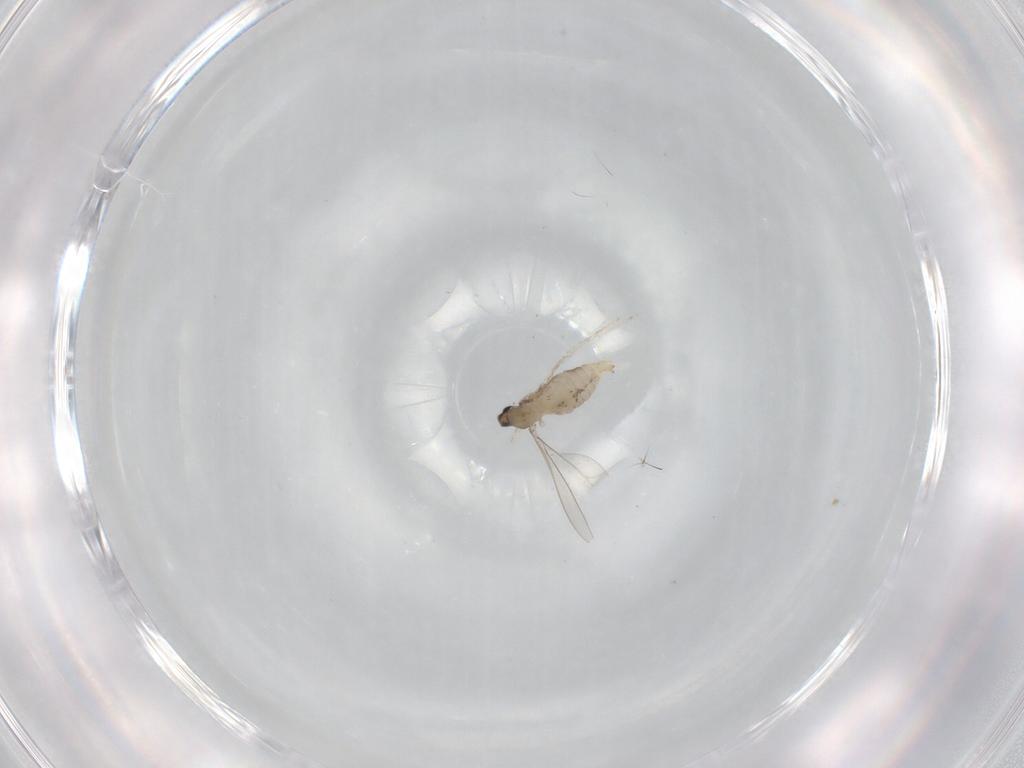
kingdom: Animalia
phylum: Arthropoda
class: Insecta
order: Diptera
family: Cecidomyiidae
